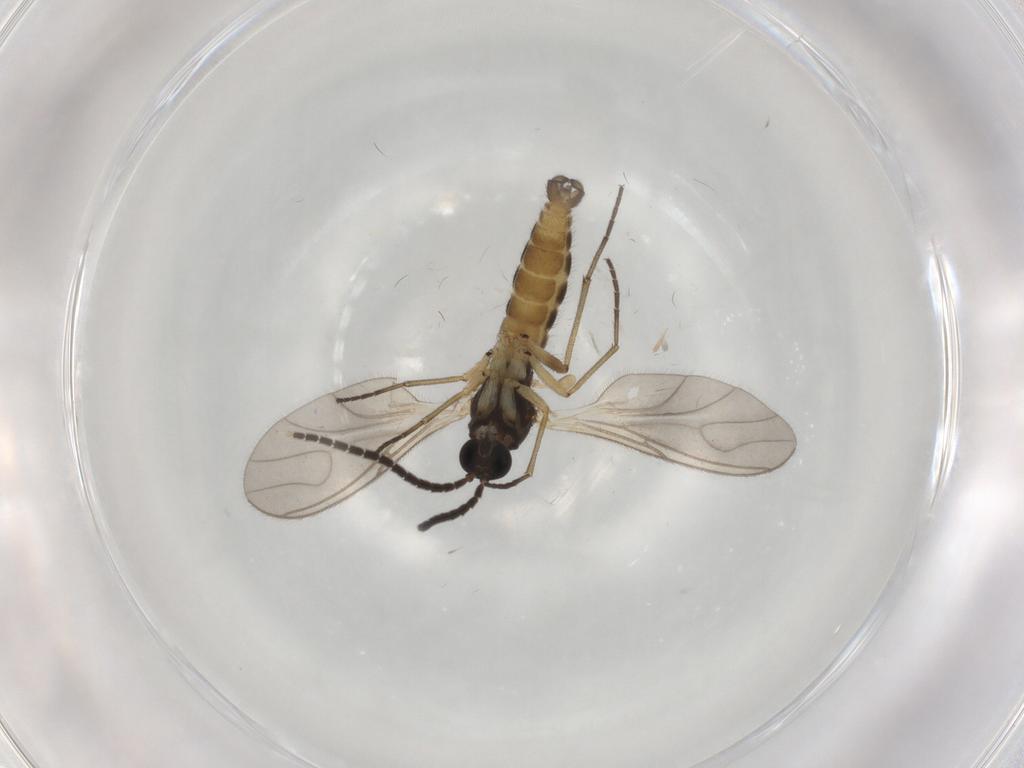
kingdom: Animalia
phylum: Arthropoda
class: Insecta
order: Diptera
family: Sciaridae
